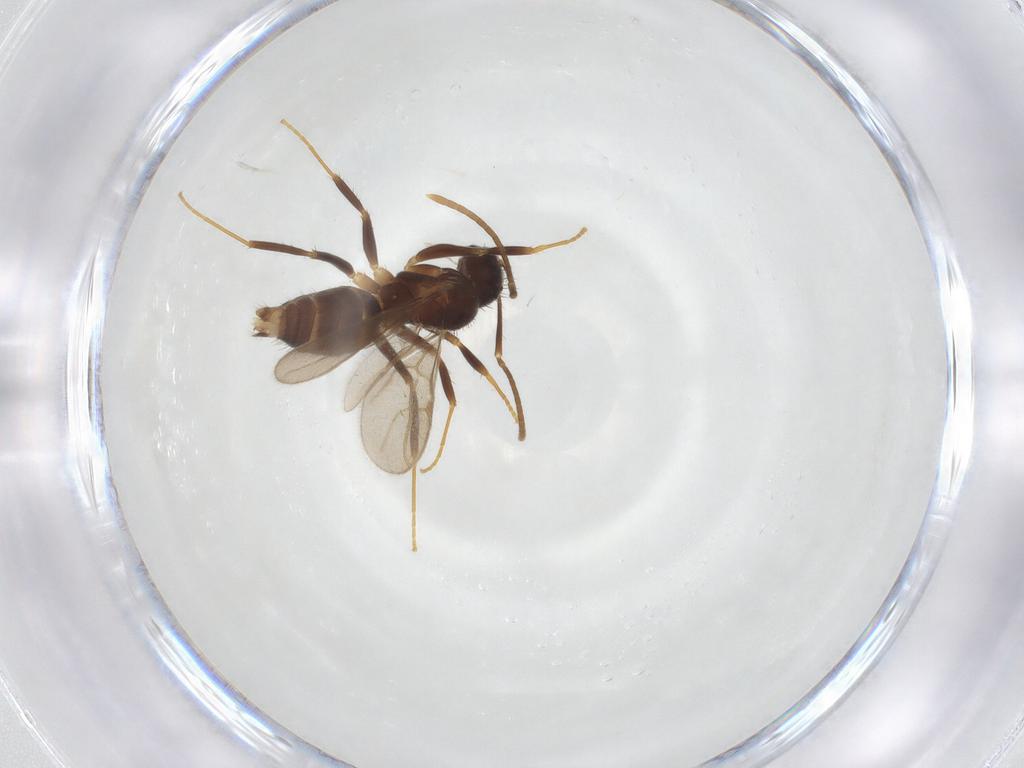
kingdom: Animalia
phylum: Arthropoda
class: Insecta
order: Hymenoptera
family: Formicidae
